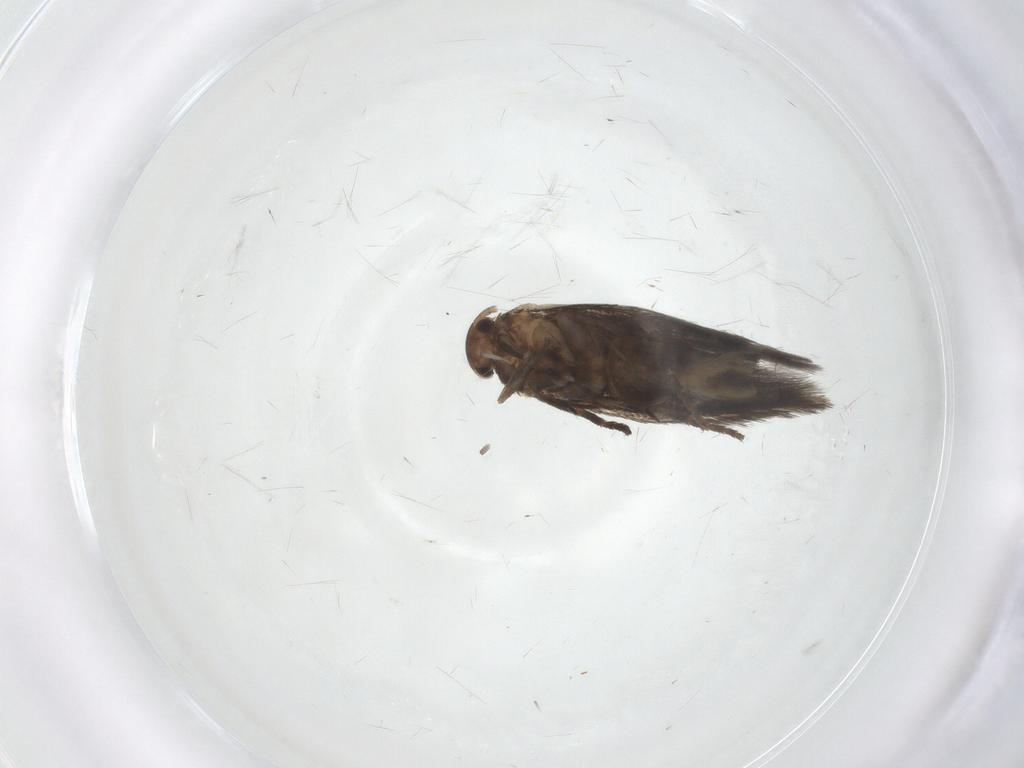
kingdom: Animalia
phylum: Arthropoda
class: Insecta
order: Lepidoptera
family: Elachistidae
